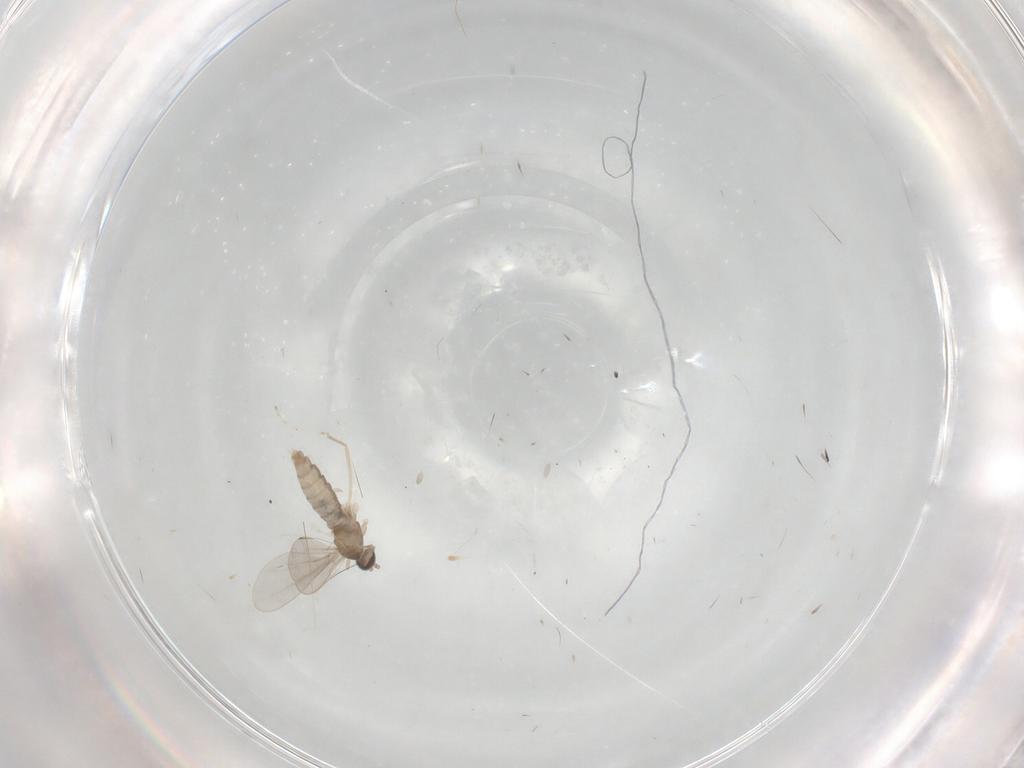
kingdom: Animalia
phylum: Arthropoda
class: Insecta
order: Diptera
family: Cecidomyiidae
